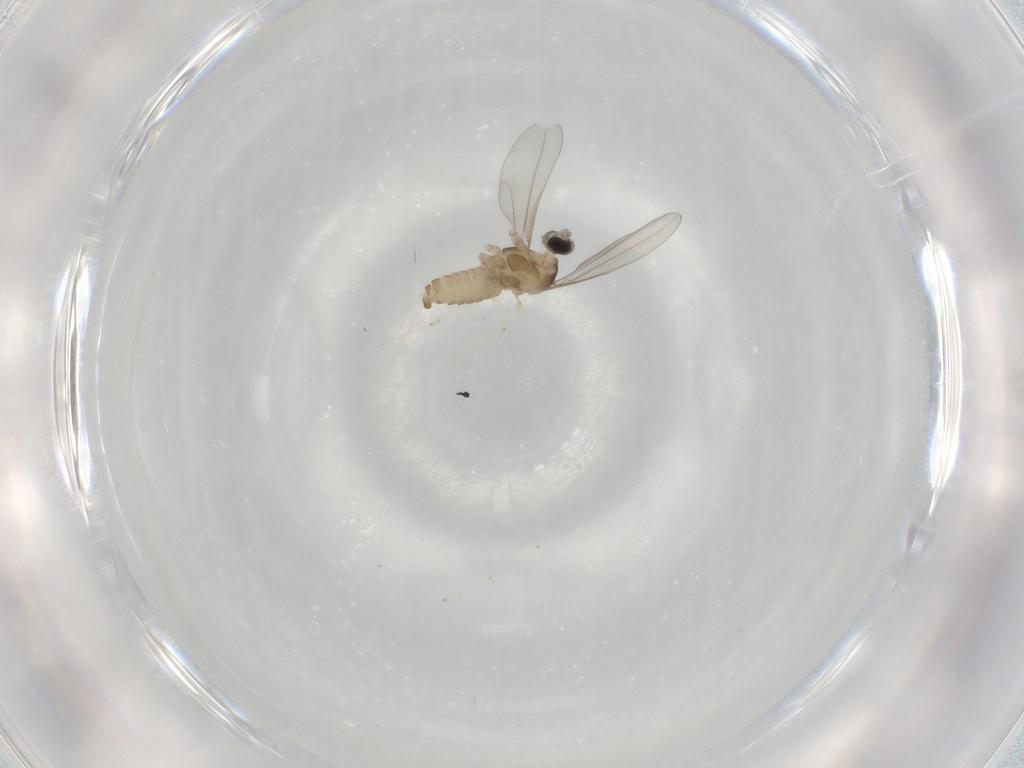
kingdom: Animalia
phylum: Arthropoda
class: Insecta
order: Diptera
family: Cecidomyiidae
